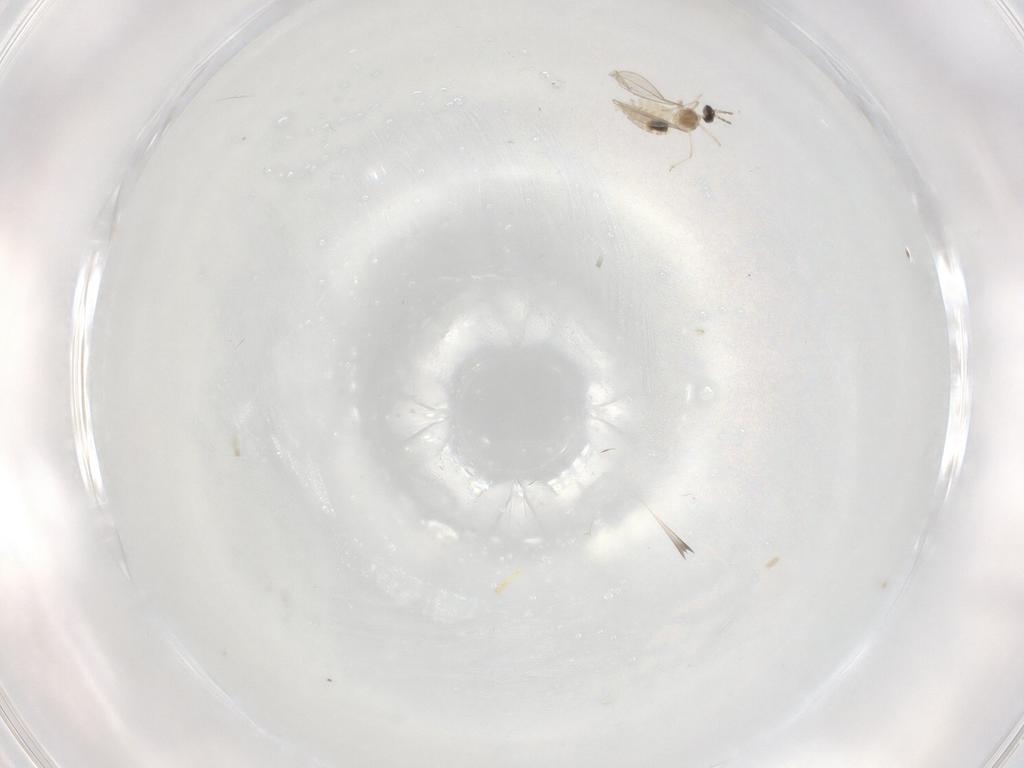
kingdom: Animalia
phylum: Arthropoda
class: Insecta
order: Diptera
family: Cecidomyiidae
